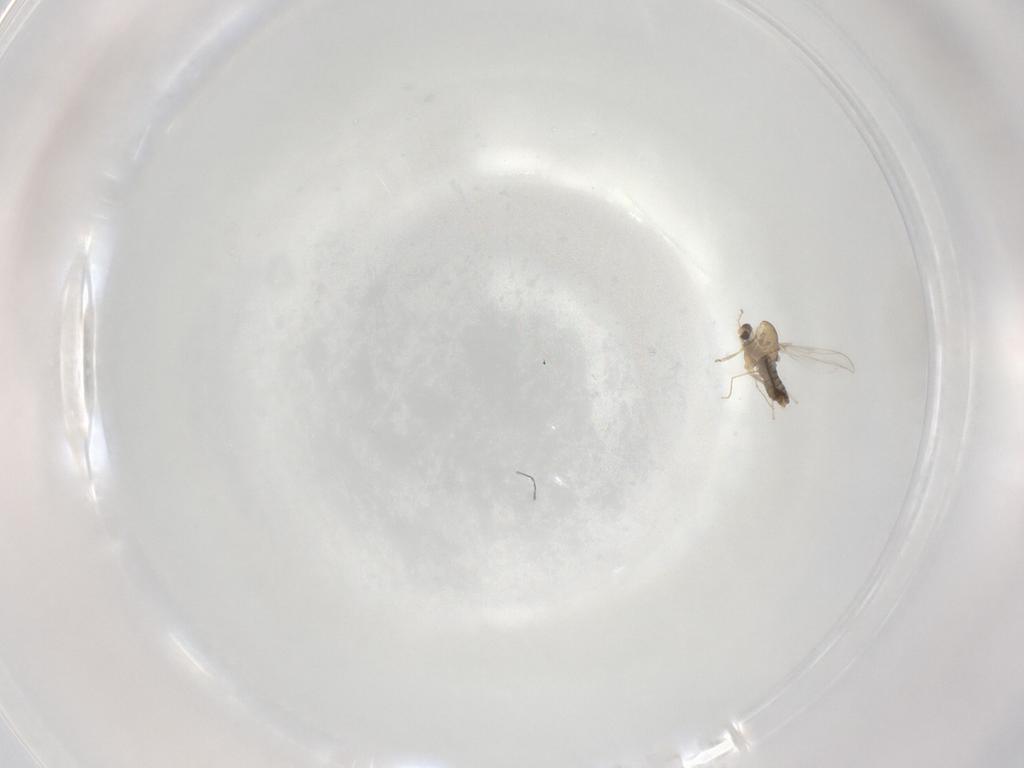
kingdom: Animalia
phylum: Arthropoda
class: Insecta
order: Diptera
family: Chironomidae
